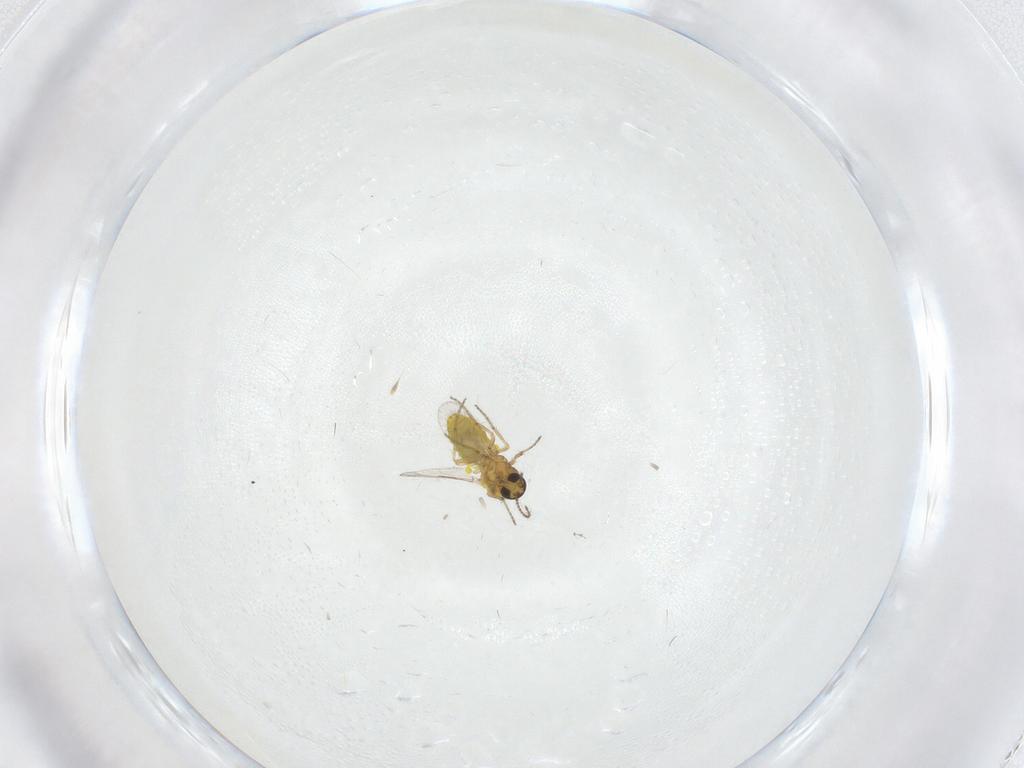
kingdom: Animalia
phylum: Arthropoda
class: Insecta
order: Diptera
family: Ceratopogonidae
